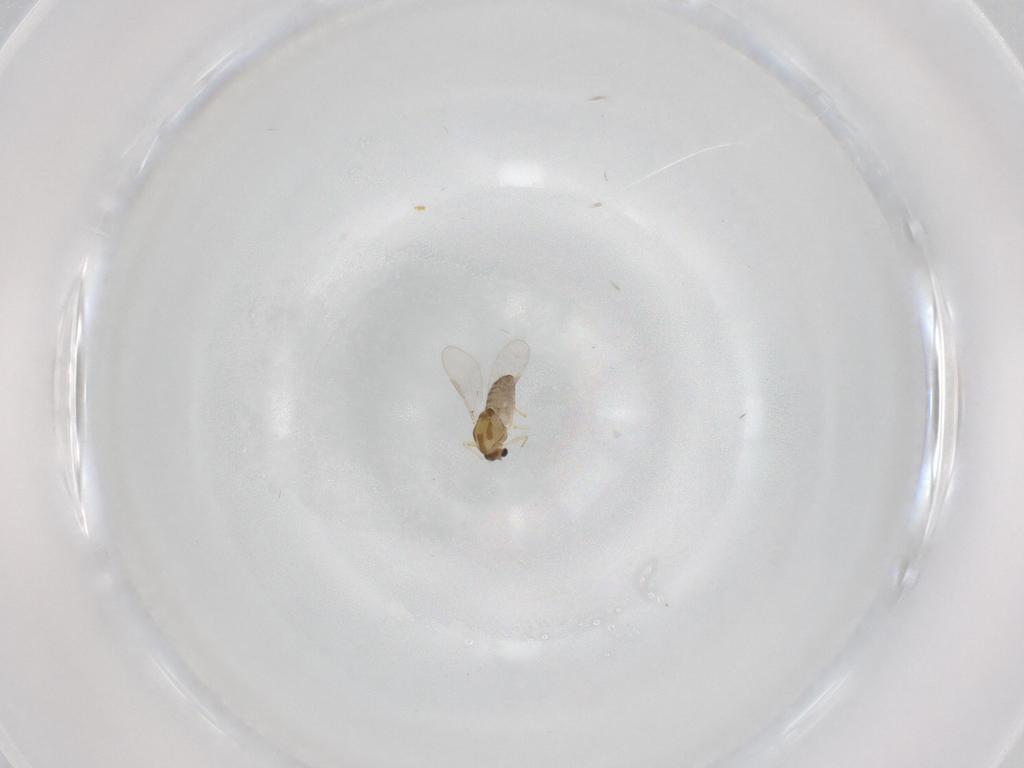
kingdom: Animalia
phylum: Arthropoda
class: Insecta
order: Diptera
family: Chironomidae
